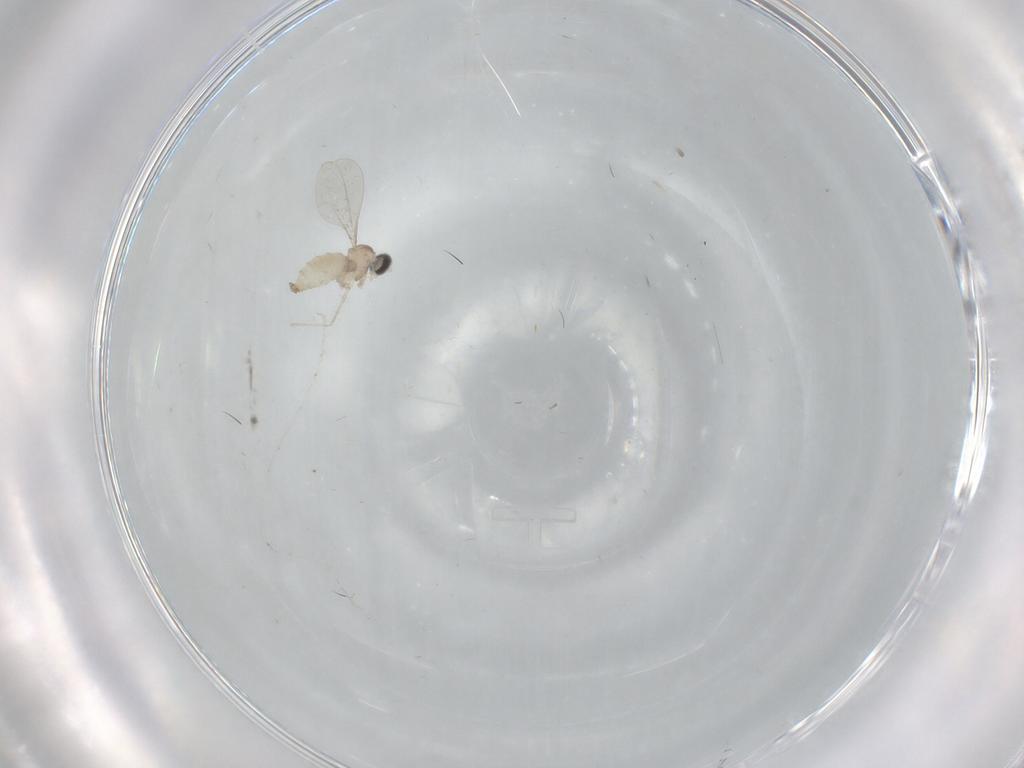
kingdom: Animalia
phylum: Arthropoda
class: Insecta
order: Diptera
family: Cecidomyiidae
